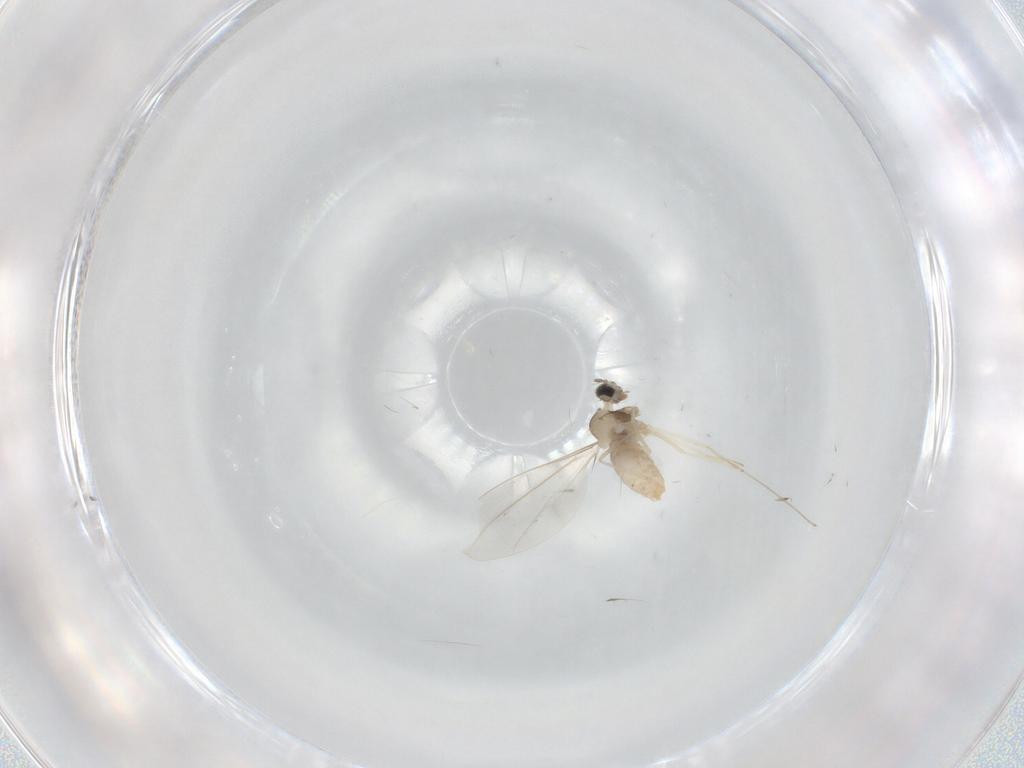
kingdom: Animalia
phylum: Arthropoda
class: Insecta
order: Diptera
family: Cecidomyiidae
